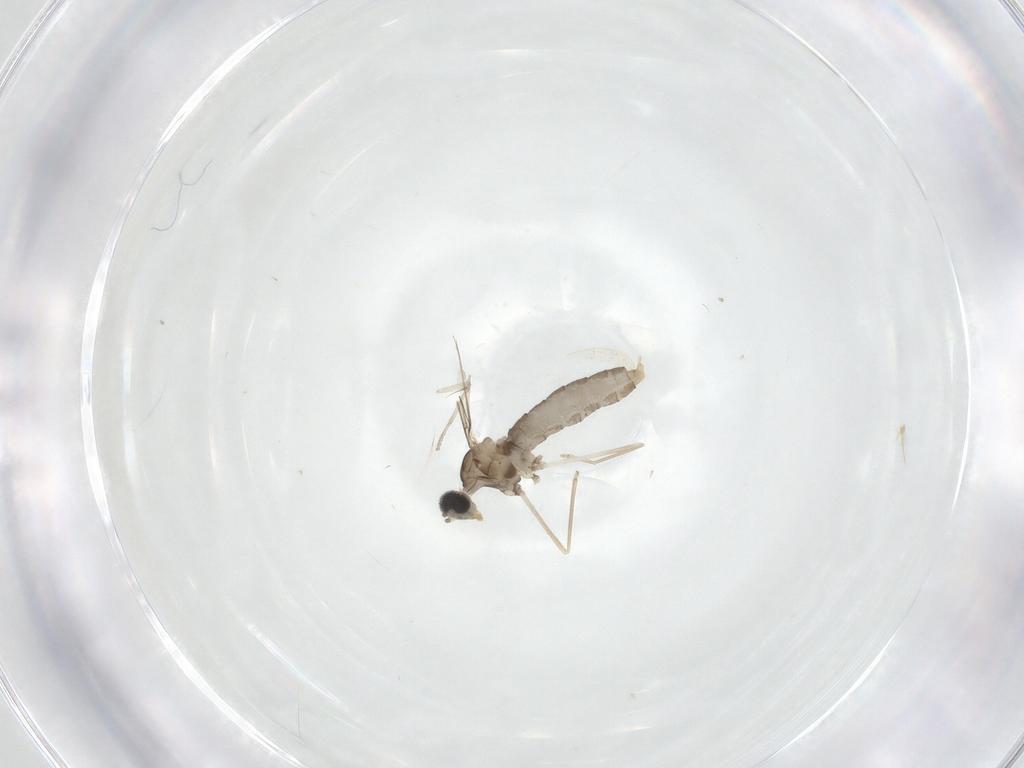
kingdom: Animalia
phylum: Arthropoda
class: Insecta
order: Diptera
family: Cecidomyiidae
